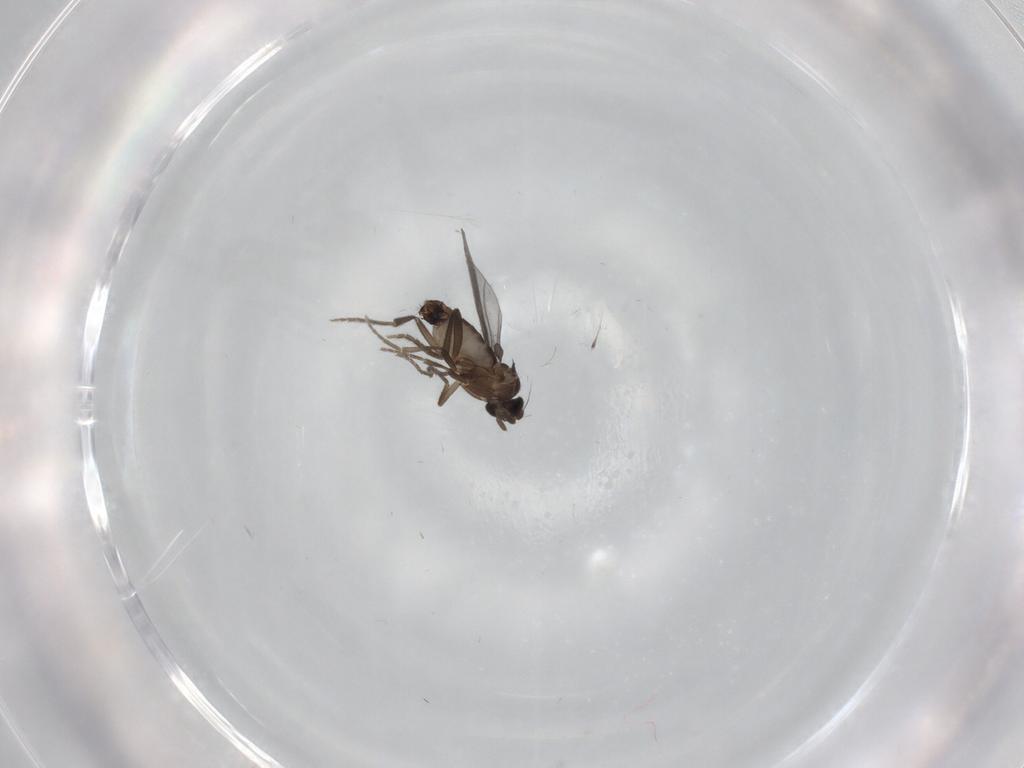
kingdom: Animalia
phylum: Arthropoda
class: Insecta
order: Diptera
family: Phoridae
